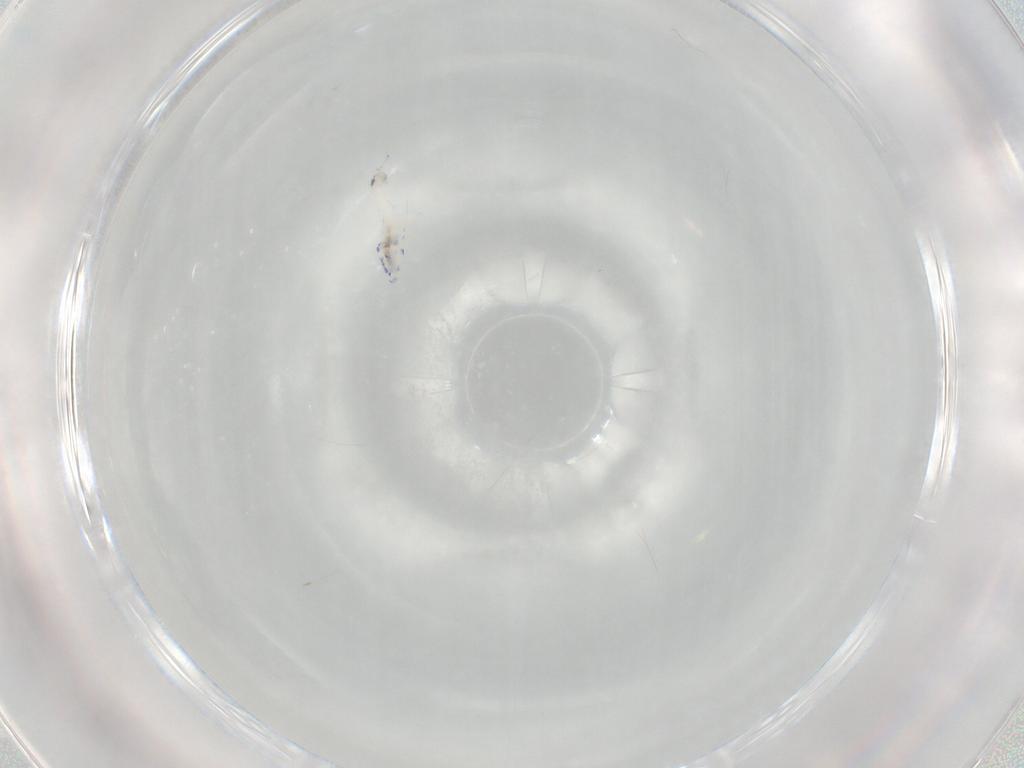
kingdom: Animalia
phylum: Arthropoda
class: Collembola
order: Entomobryomorpha
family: Entomobryidae
